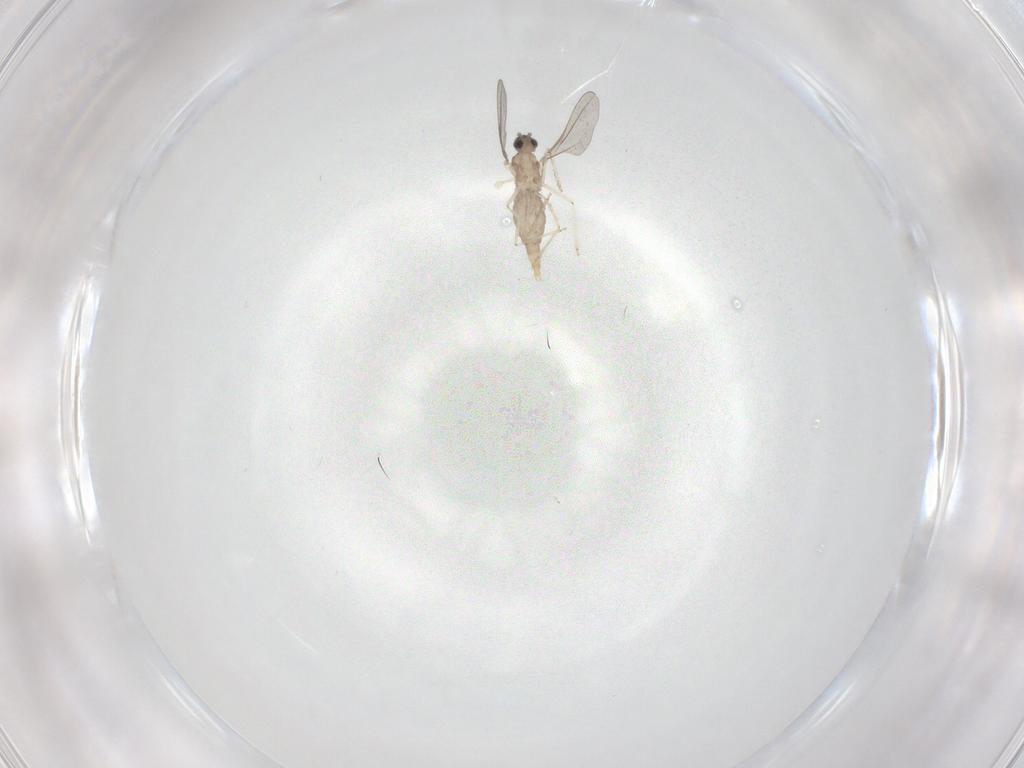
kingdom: Animalia
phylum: Arthropoda
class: Insecta
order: Diptera
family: Cecidomyiidae
